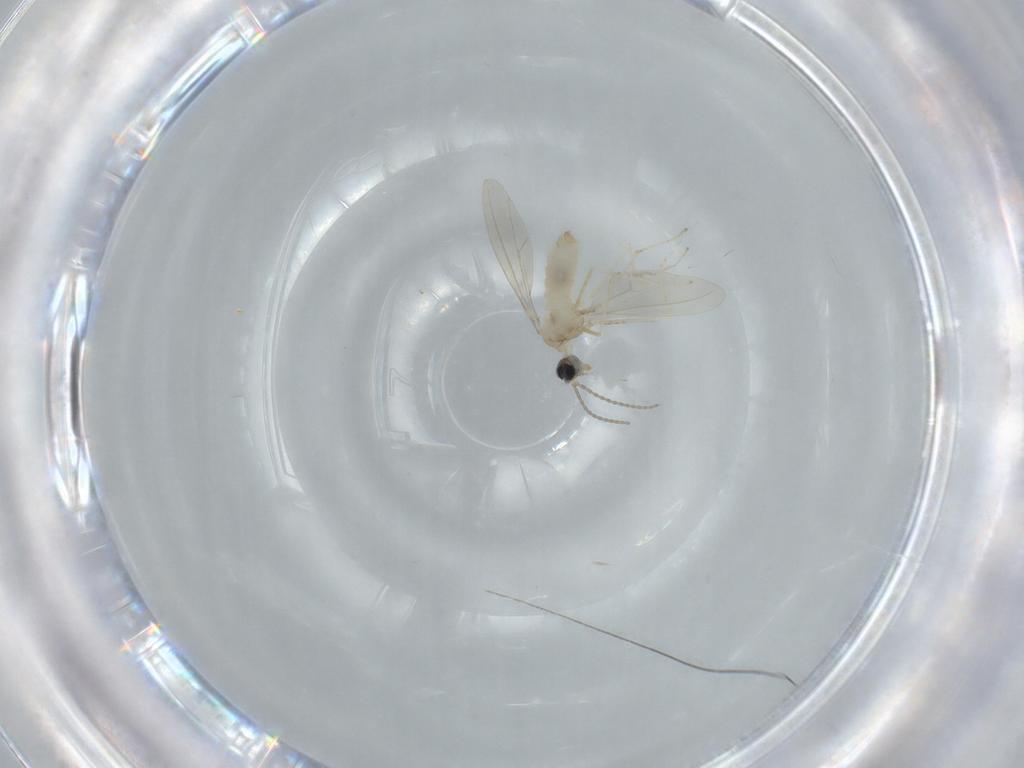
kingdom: Animalia
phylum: Arthropoda
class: Insecta
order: Diptera
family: Cecidomyiidae
